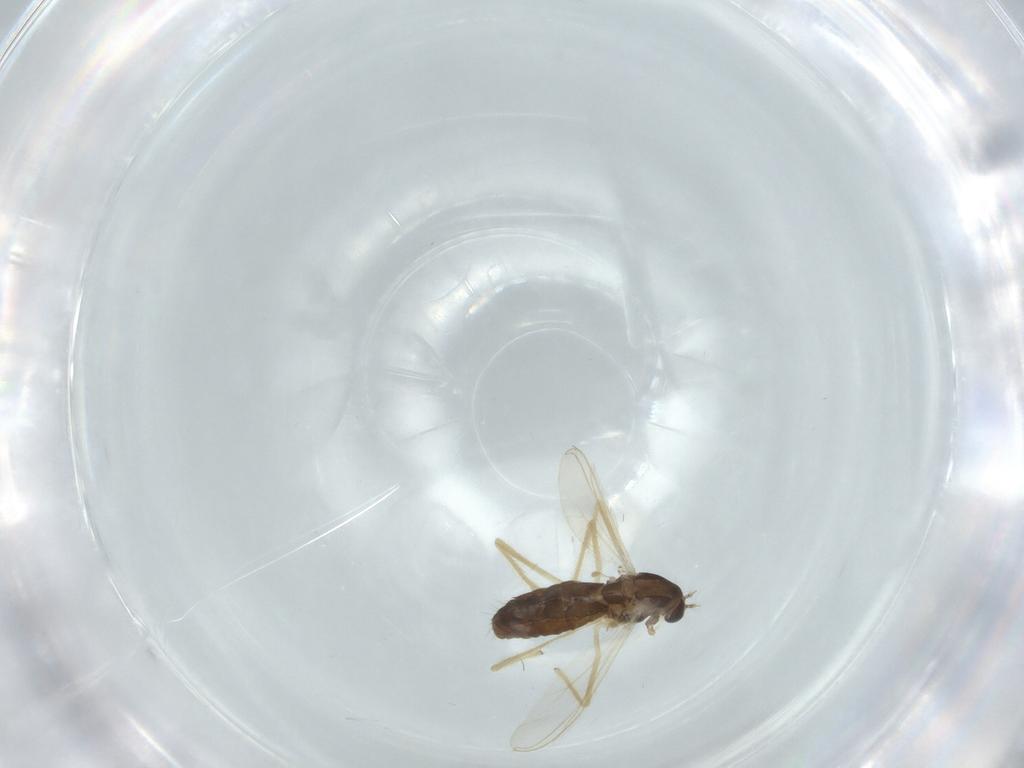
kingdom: Animalia
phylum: Arthropoda
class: Insecta
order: Diptera
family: Chironomidae
